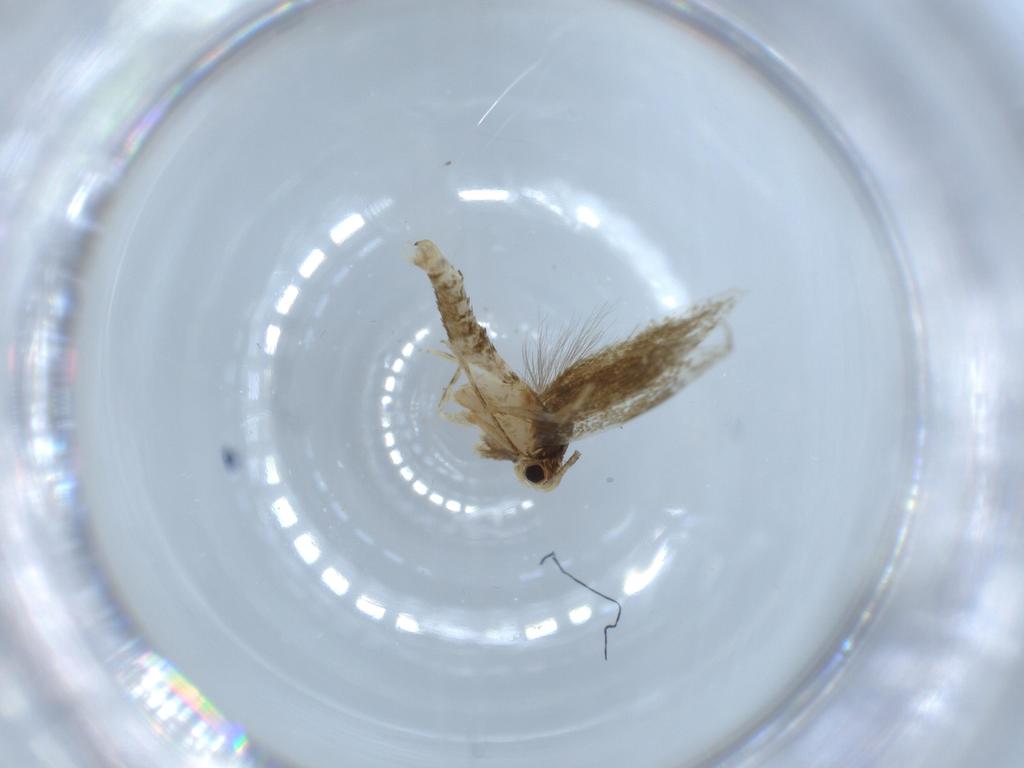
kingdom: Animalia
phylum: Arthropoda
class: Insecta
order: Lepidoptera
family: Tineidae
